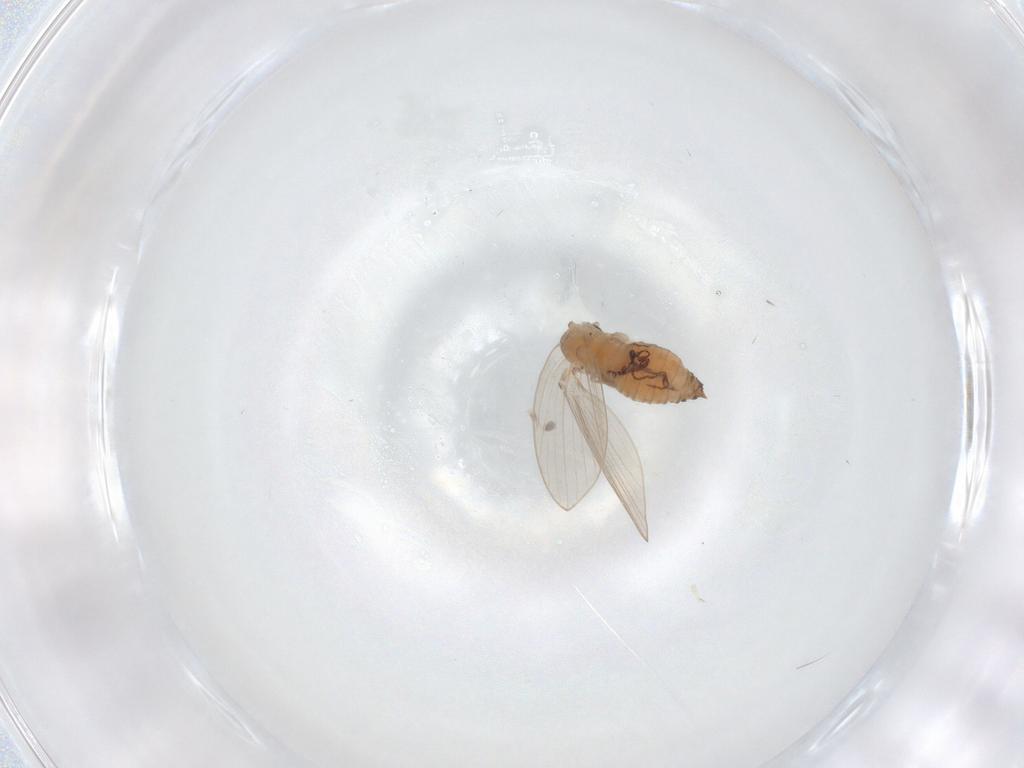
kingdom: Animalia
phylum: Arthropoda
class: Insecta
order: Diptera
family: Psychodidae
